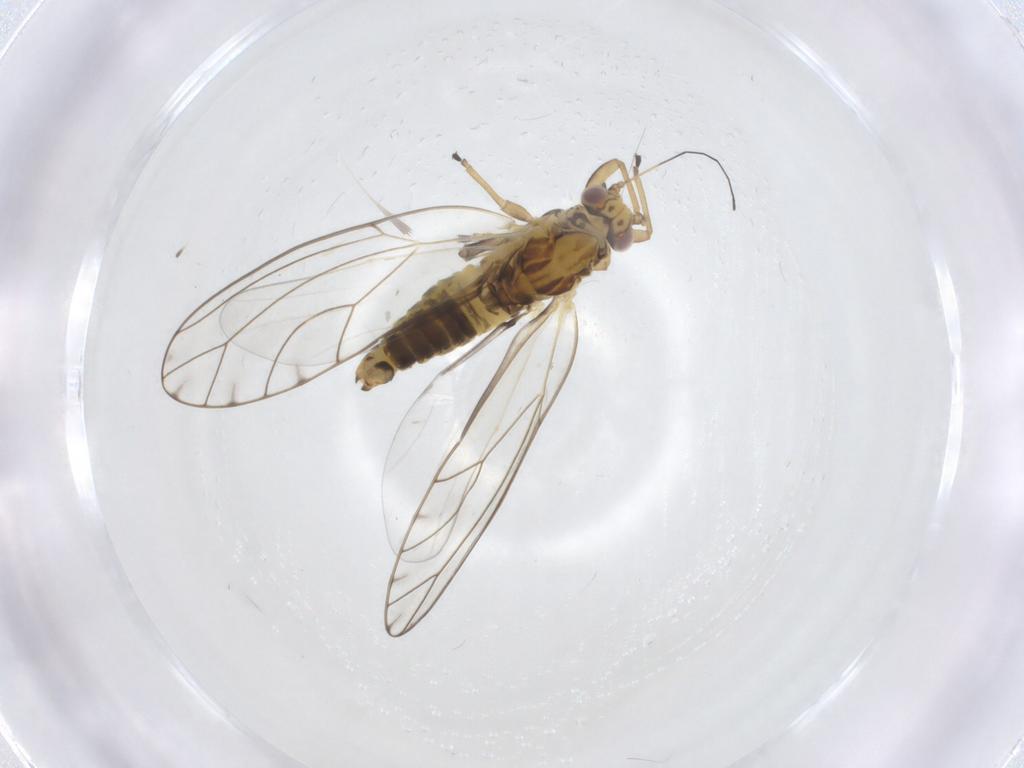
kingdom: Animalia
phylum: Arthropoda
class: Insecta
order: Hemiptera
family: Triozidae
